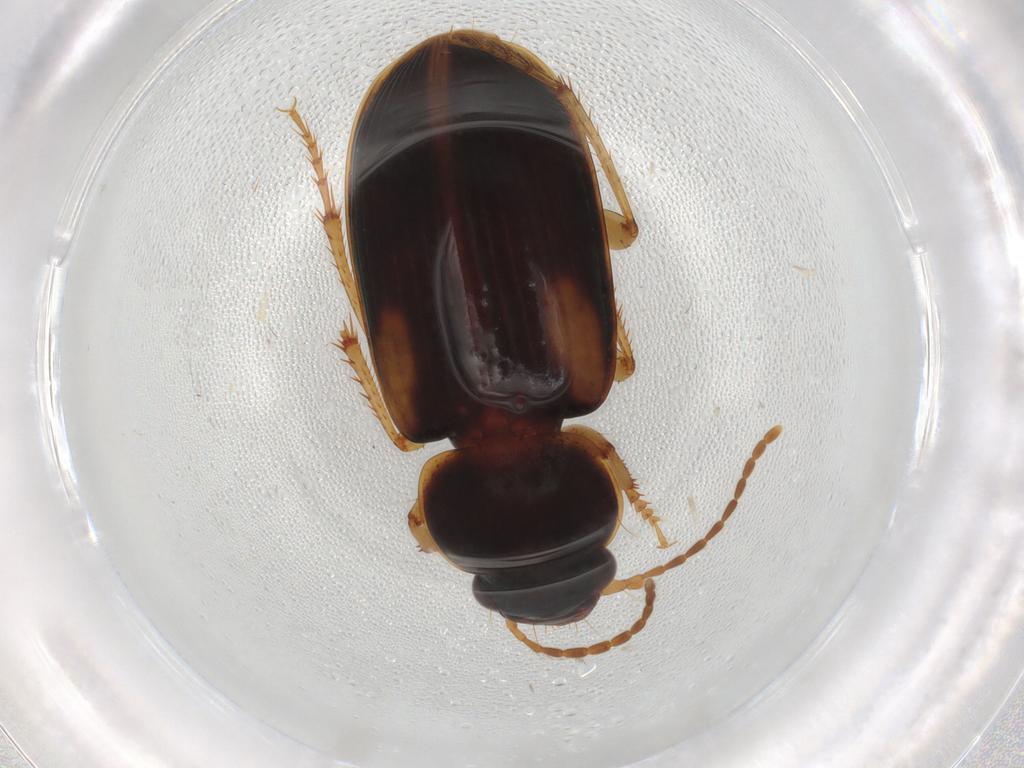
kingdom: Animalia
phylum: Arthropoda
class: Insecta
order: Coleoptera
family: Carabidae
